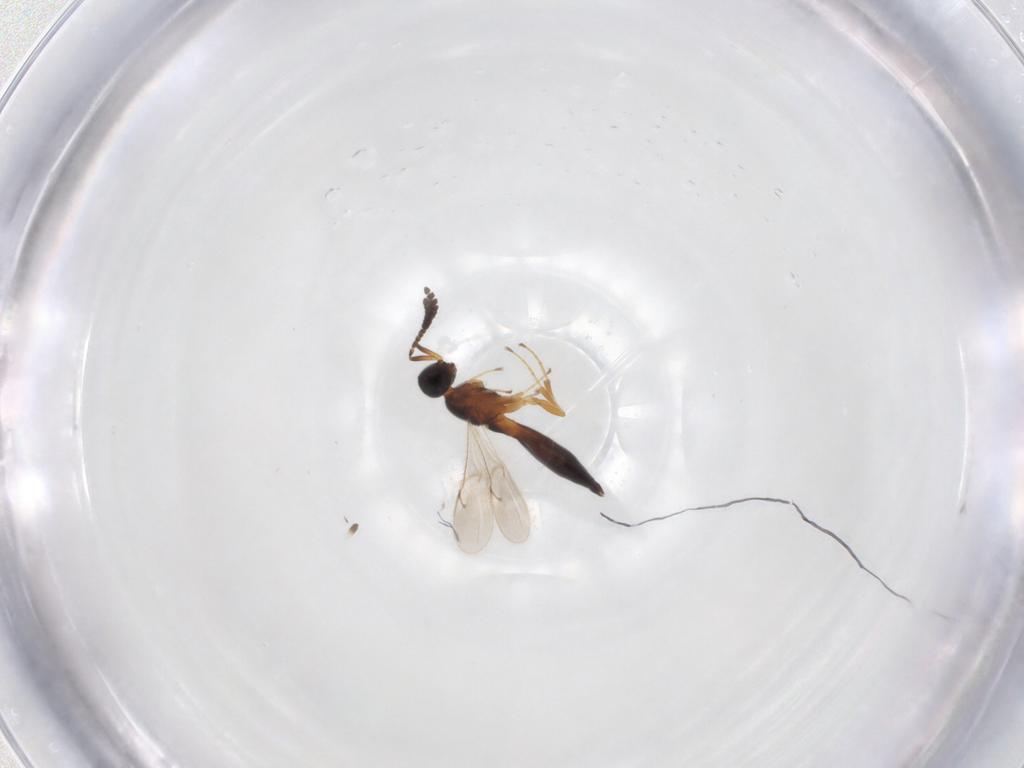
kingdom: Animalia
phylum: Arthropoda
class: Insecta
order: Hymenoptera
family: Scelionidae
